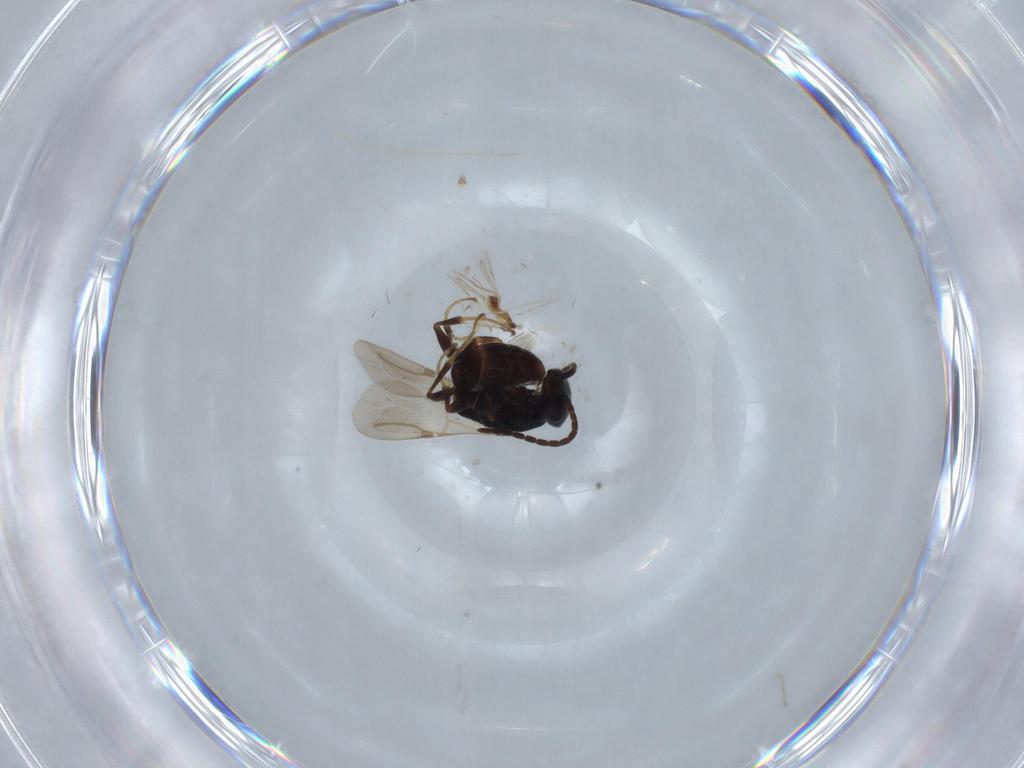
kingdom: Animalia
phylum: Arthropoda
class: Insecta
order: Hymenoptera
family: Bethylidae
